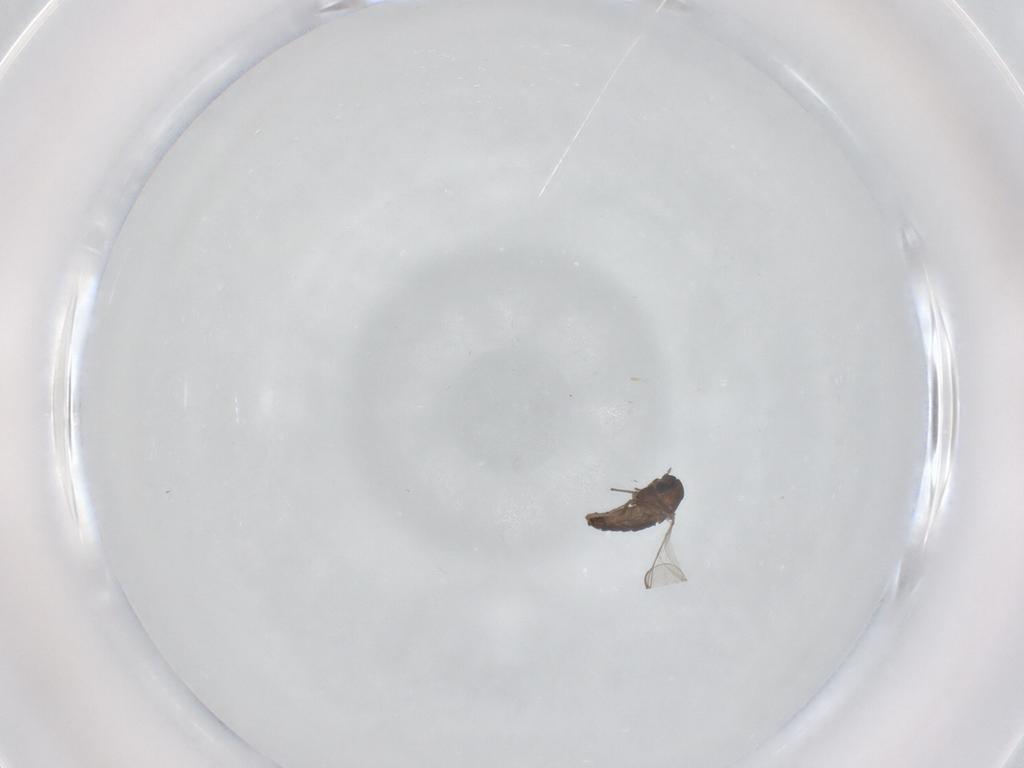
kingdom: Animalia
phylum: Arthropoda
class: Insecta
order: Diptera
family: Chironomidae
